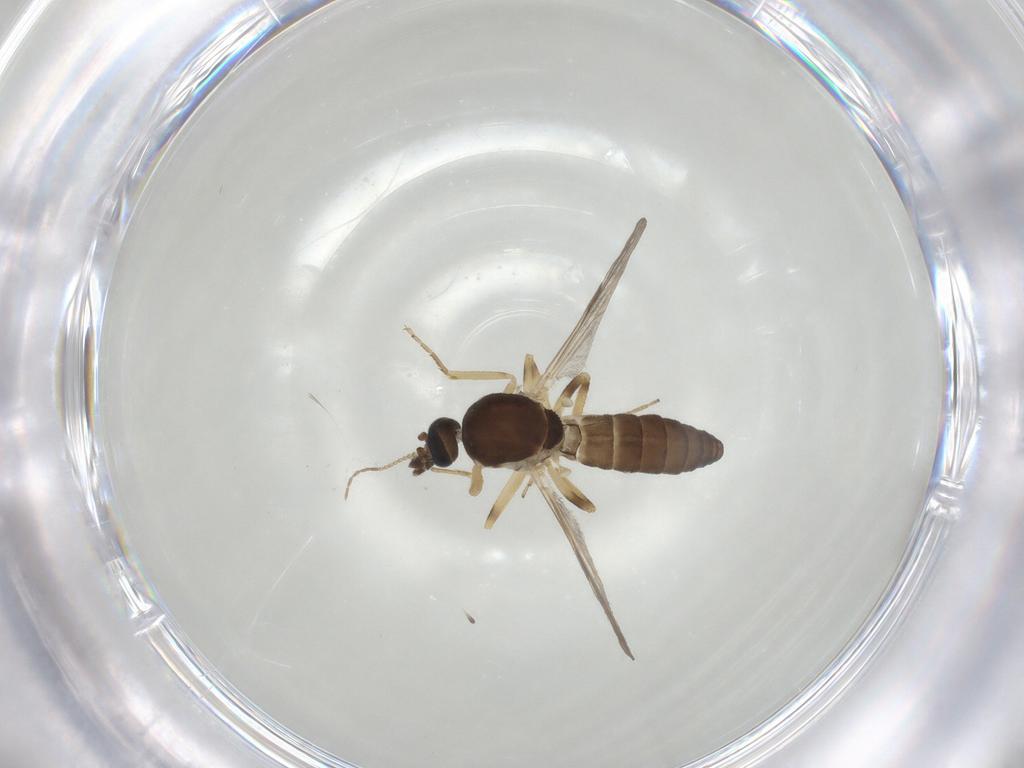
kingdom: Animalia
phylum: Arthropoda
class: Insecta
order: Diptera
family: Ceratopogonidae
